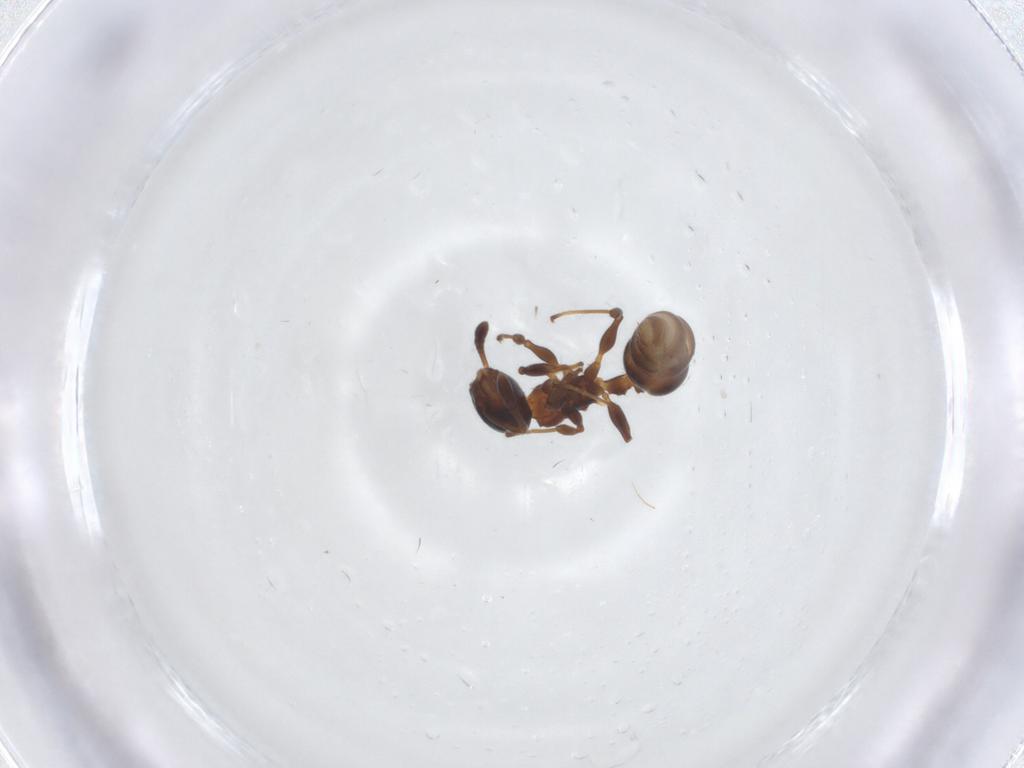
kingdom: Animalia
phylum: Arthropoda
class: Insecta
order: Hymenoptera
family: Formicidae
